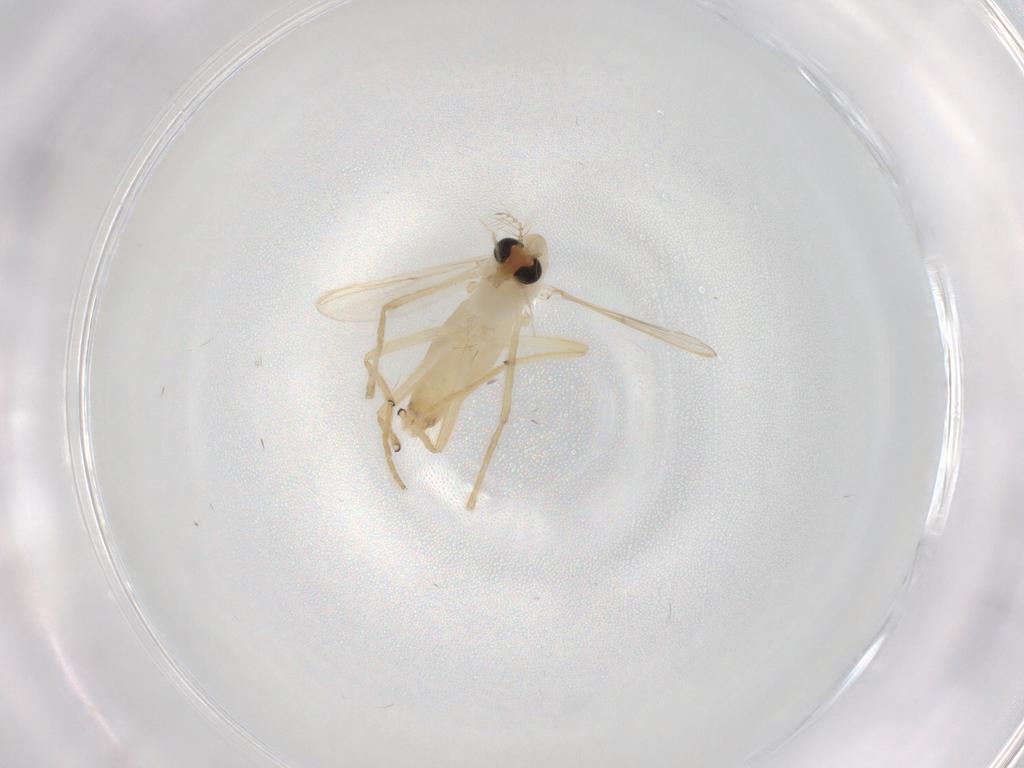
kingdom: Animalia
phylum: Arthropoda
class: Insecta
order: Diptera
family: Chironomidae
